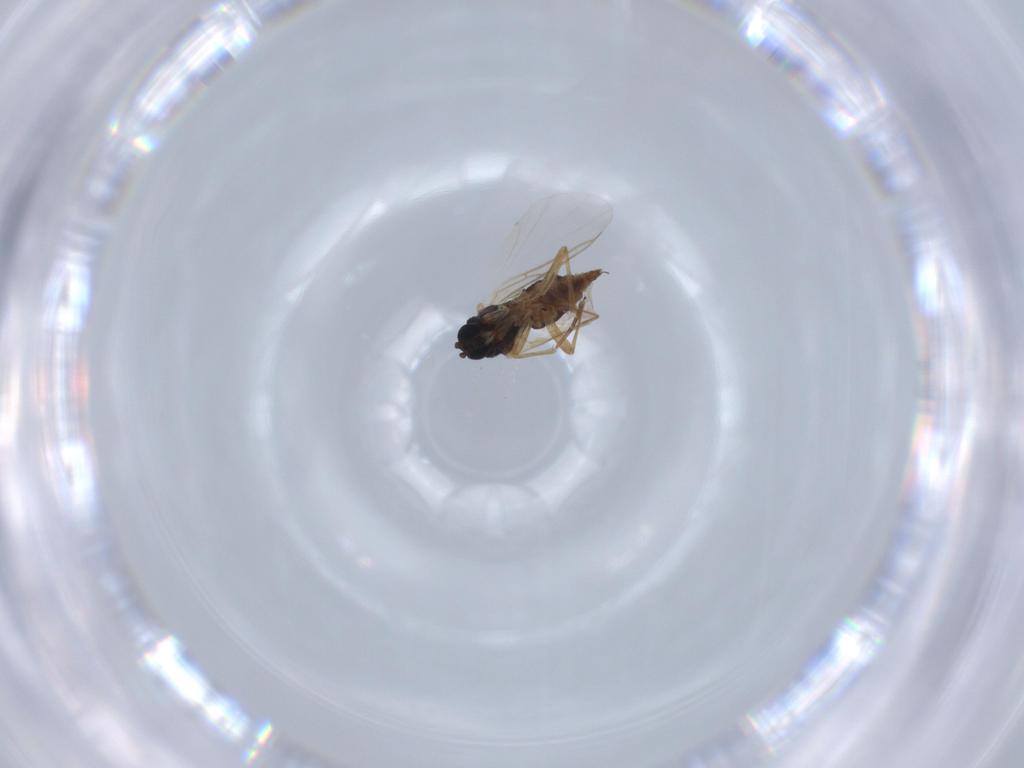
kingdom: Animalia
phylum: Arthropoda
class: Insecta
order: Diptera
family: Sciaridae
